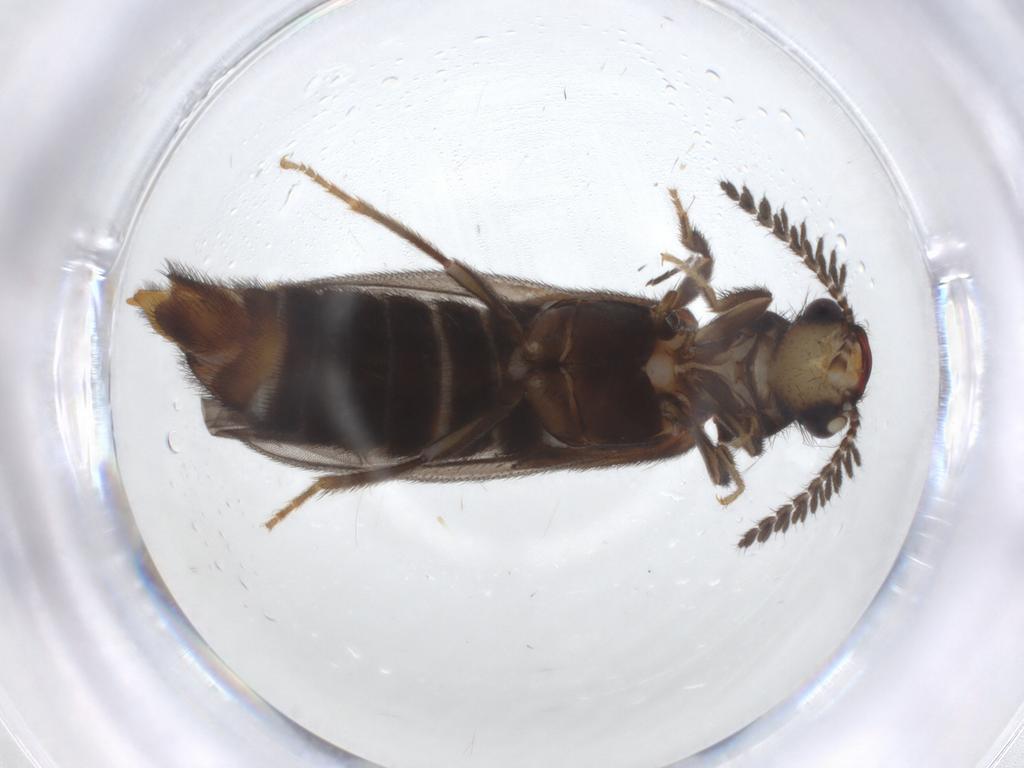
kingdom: Animalia
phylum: Arthropoda
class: Insecta
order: Coleoptera
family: Phengodidae
